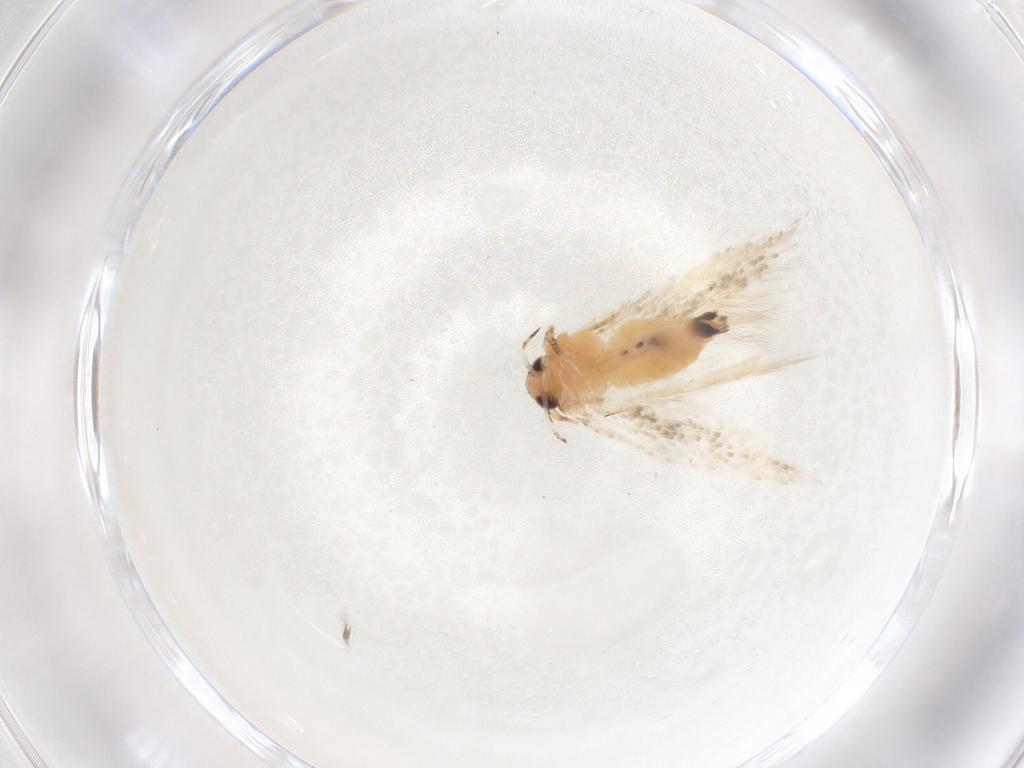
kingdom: Animalia
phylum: Arthropoda
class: Insecta
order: Lepidoptera
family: Gelechiidae
